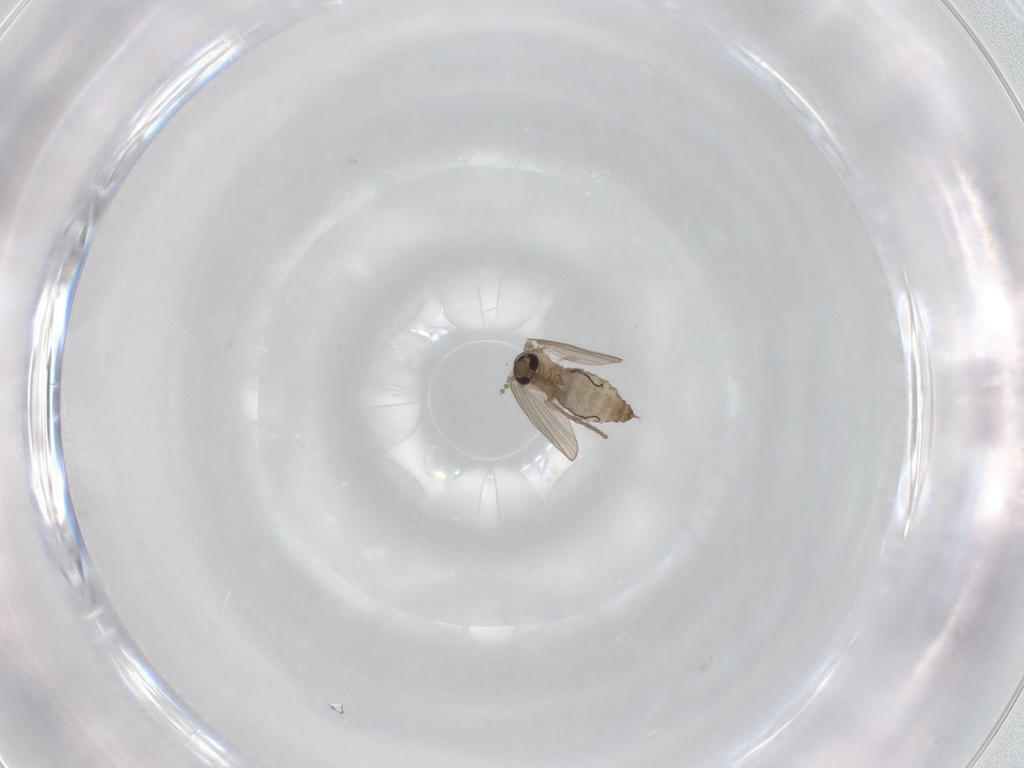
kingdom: Animalia
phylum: Arthropoda
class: Insecta
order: Diptera
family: Psychodidae
